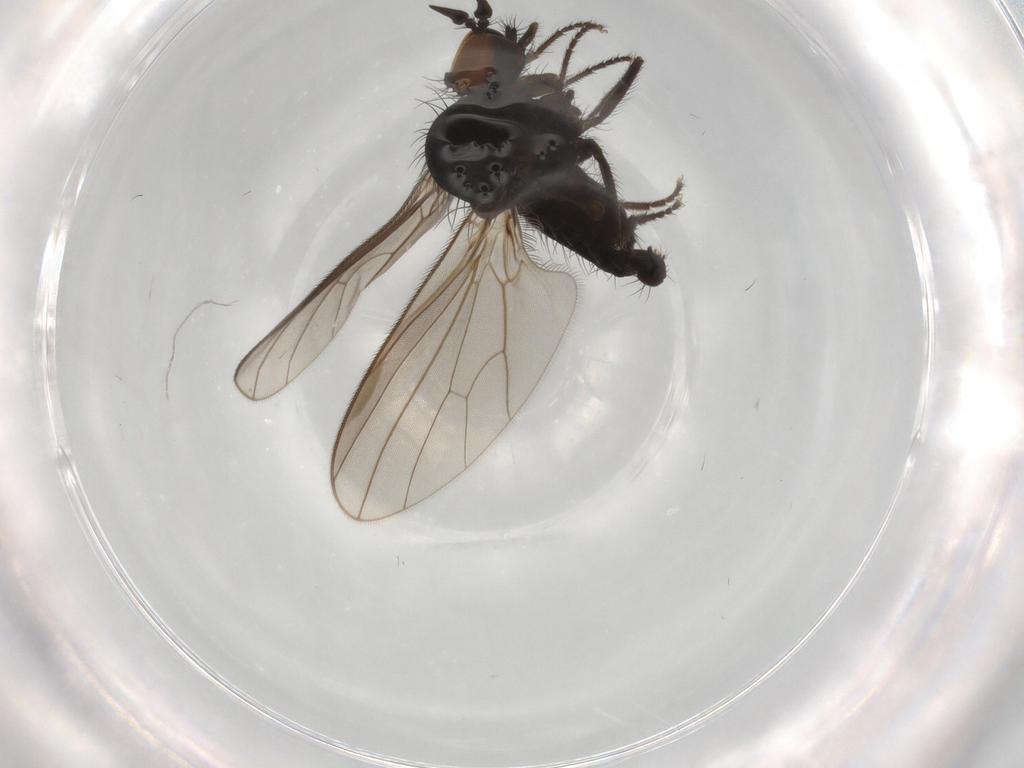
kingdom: Animalia
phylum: Arthropoda
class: Insecta
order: Diptera
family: Dolichopodidae
